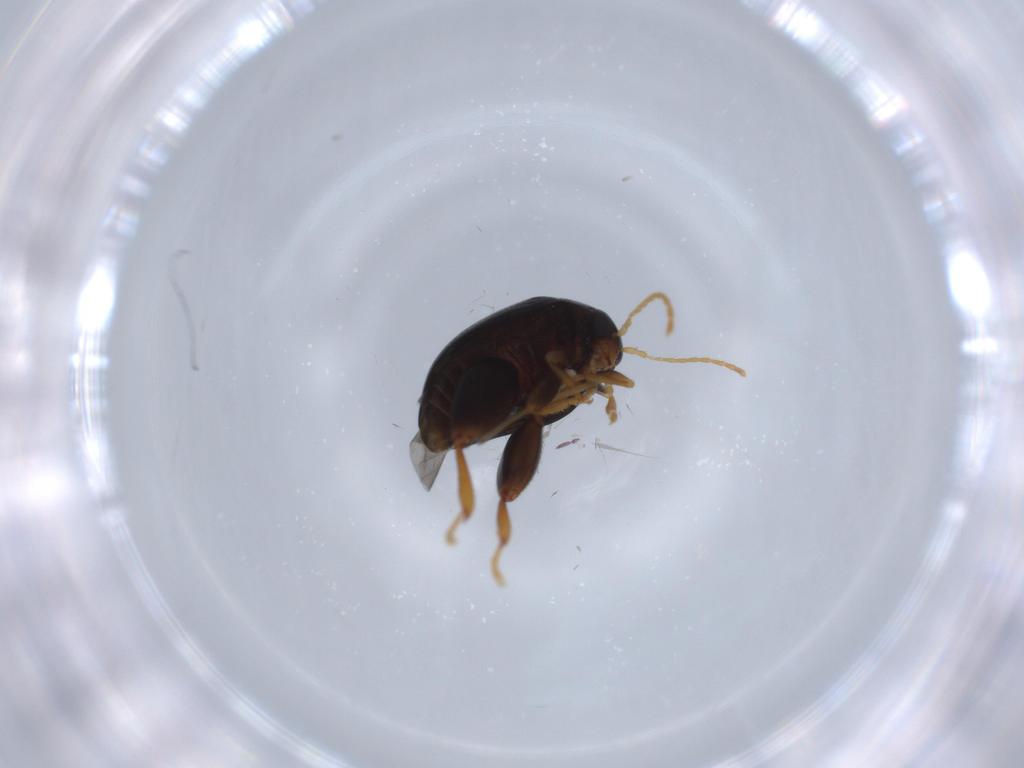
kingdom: Animalia
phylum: Arthropoda
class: Insecta
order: Coleoptera
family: Chrysomelidae
